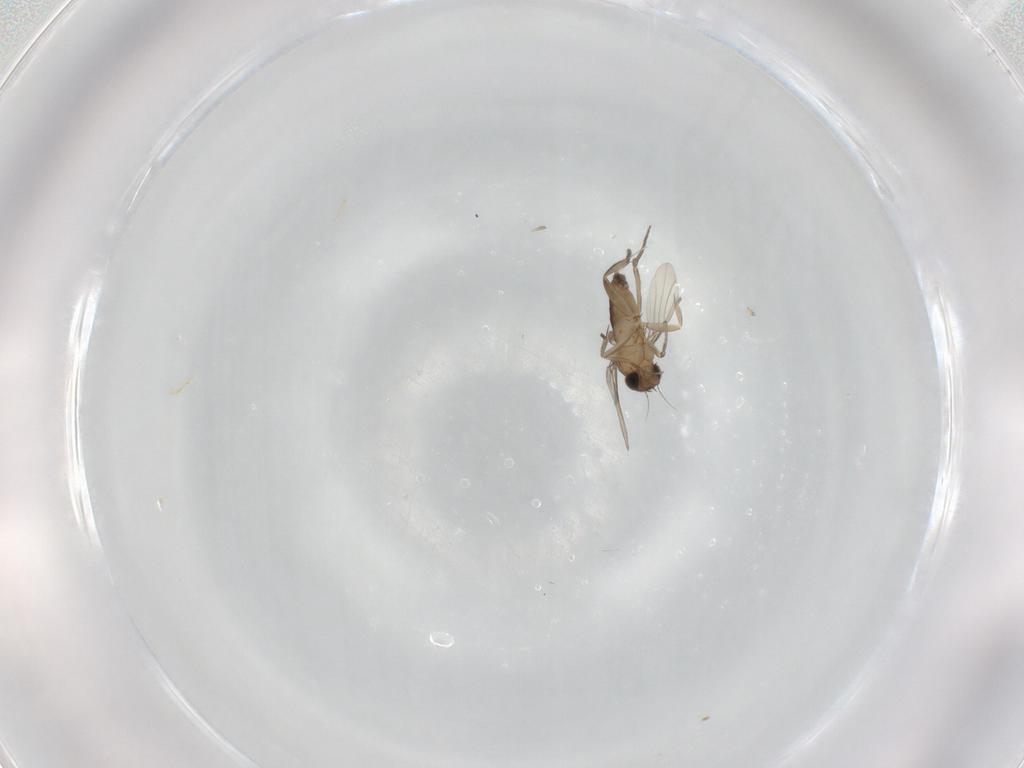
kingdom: Animalia
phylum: Arthropoda
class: Insecta
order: Diptera
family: Phoridae
